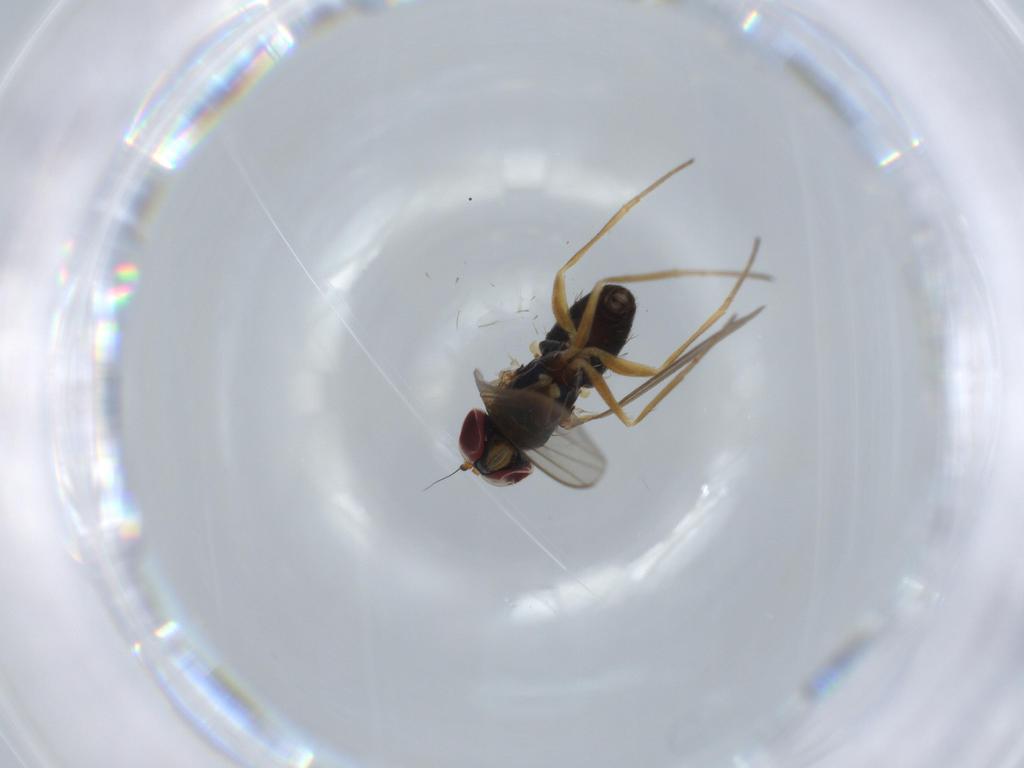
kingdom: Animalia
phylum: Arthropoda
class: Insecta
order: Diptera
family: Dolichopodidae
